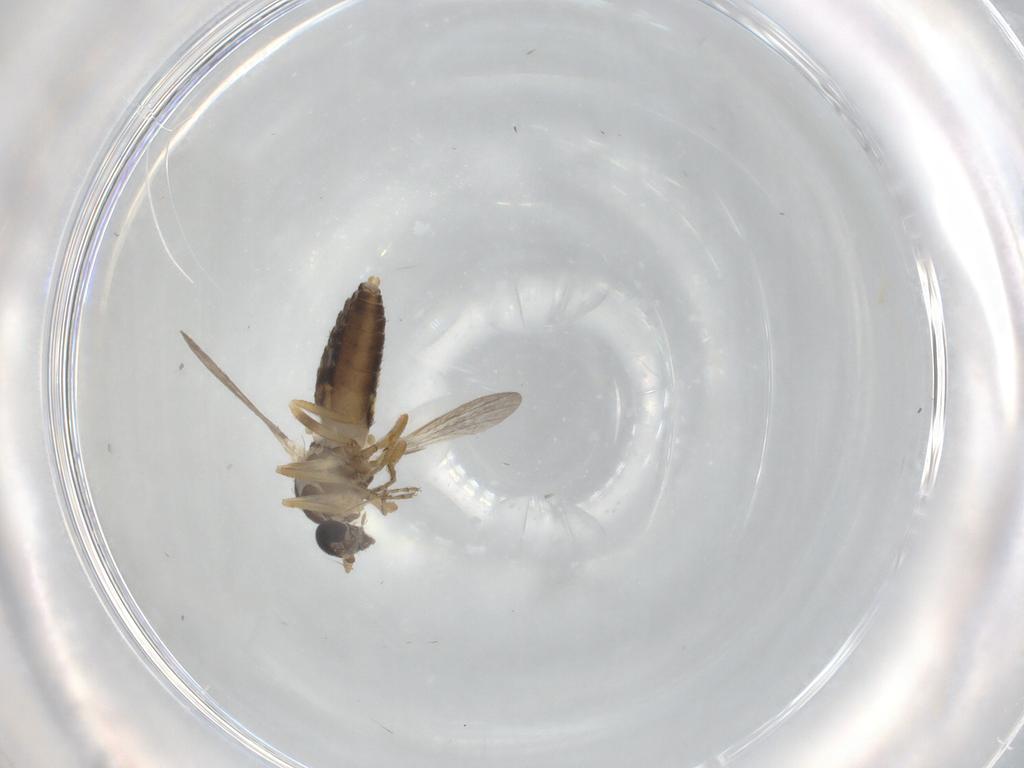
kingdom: Animalia
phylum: Arthropoda
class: Insecta
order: Diptera
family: Ceratopogonidae
